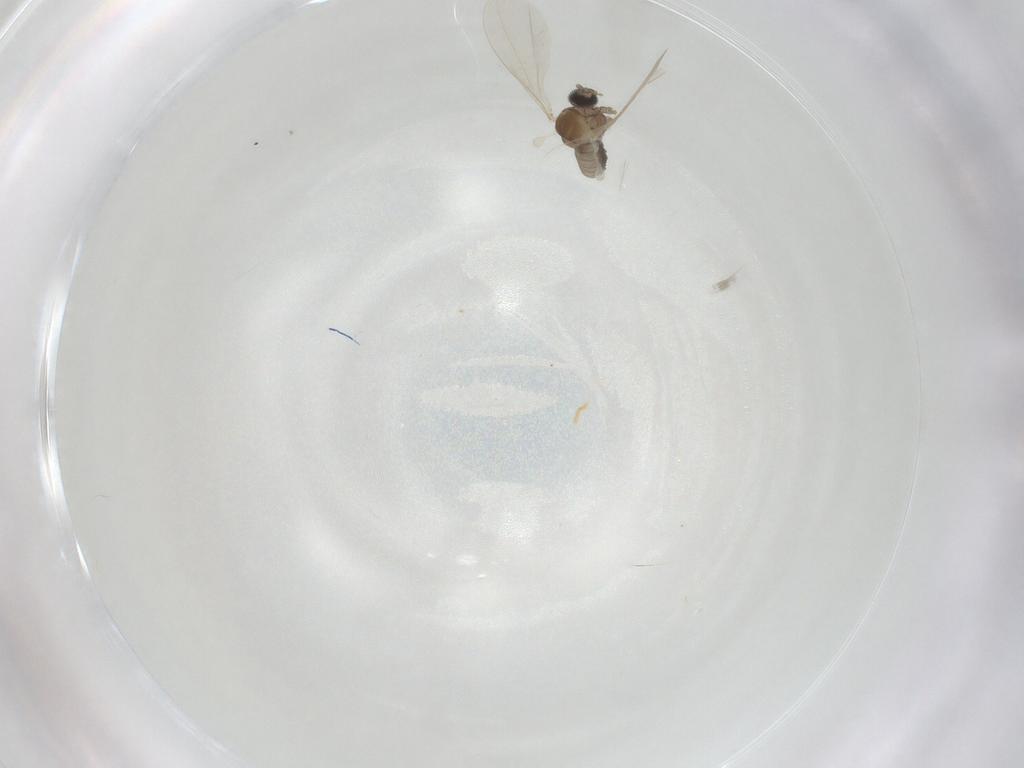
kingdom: Animalia
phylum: Arthropoda
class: Insecta
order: Diptera
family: Cecidomyiidae
